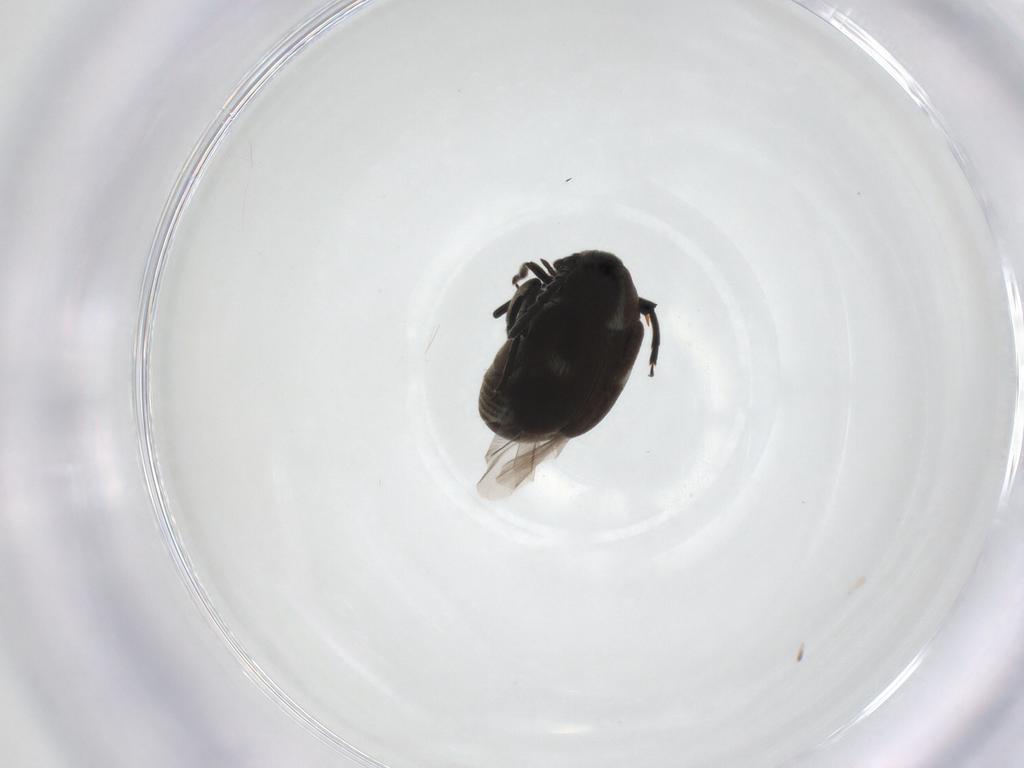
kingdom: Animalia
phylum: Arthropoda
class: Insecta
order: Coleoptera
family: Chrysomelidae
